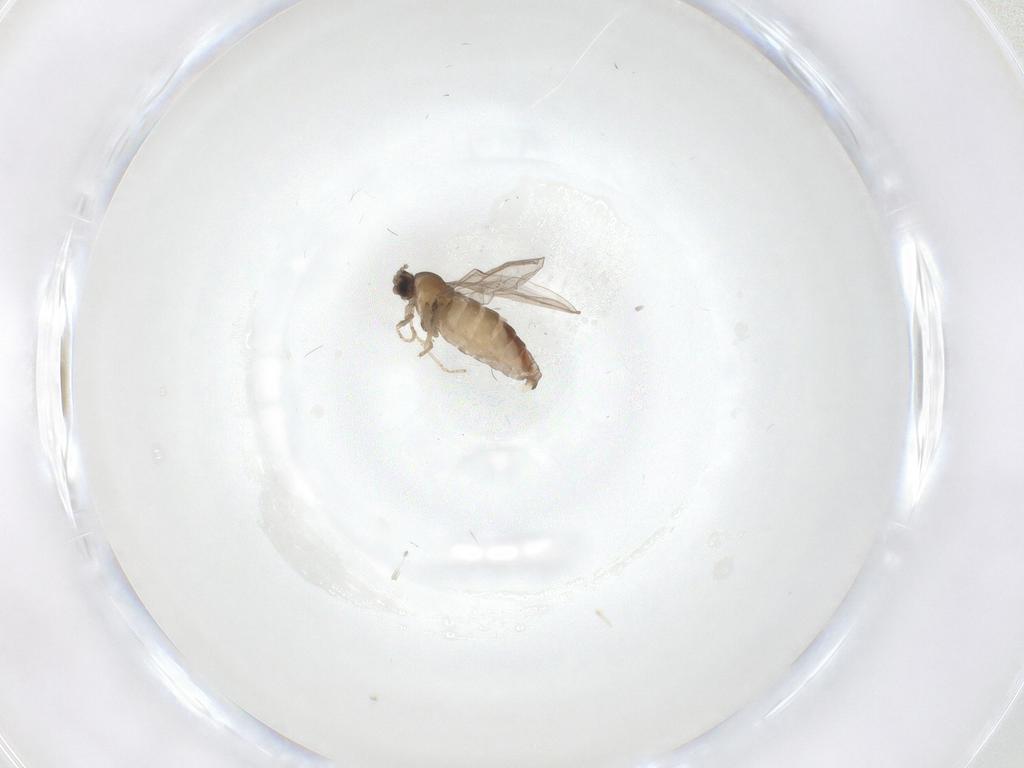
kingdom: Animalia
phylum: Arthropoda
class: Insecta
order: Diptera
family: Cecidomyiidae
